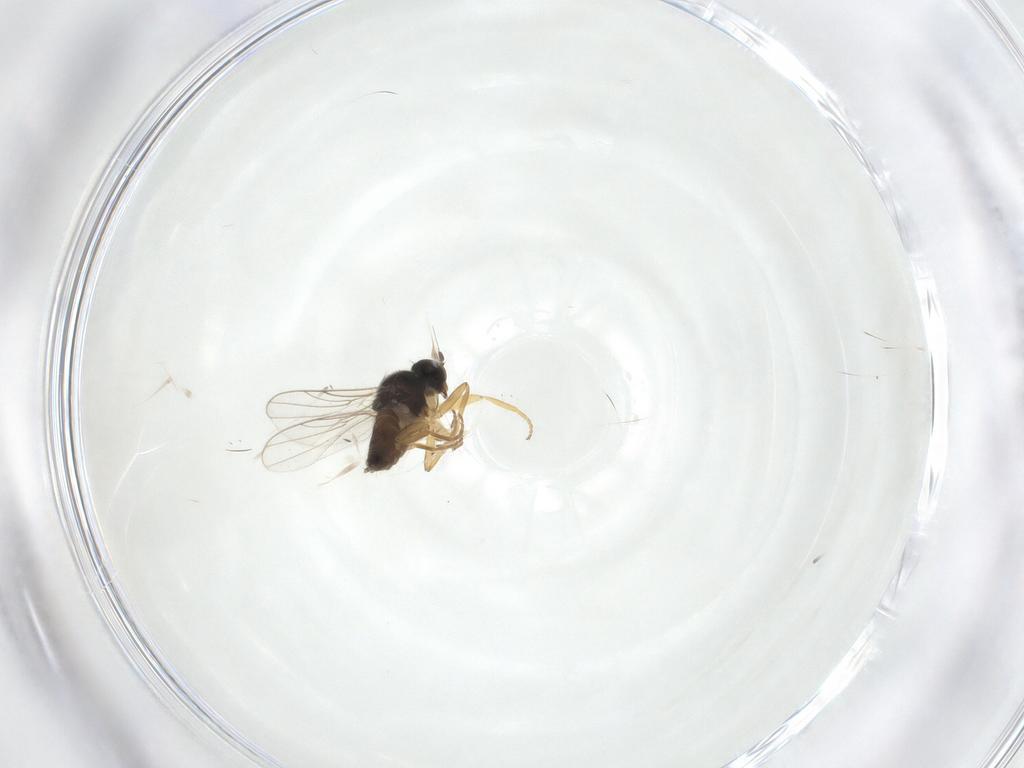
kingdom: Animalia
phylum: Arthropoda
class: Insecta
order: Diptera
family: Hybotidae
